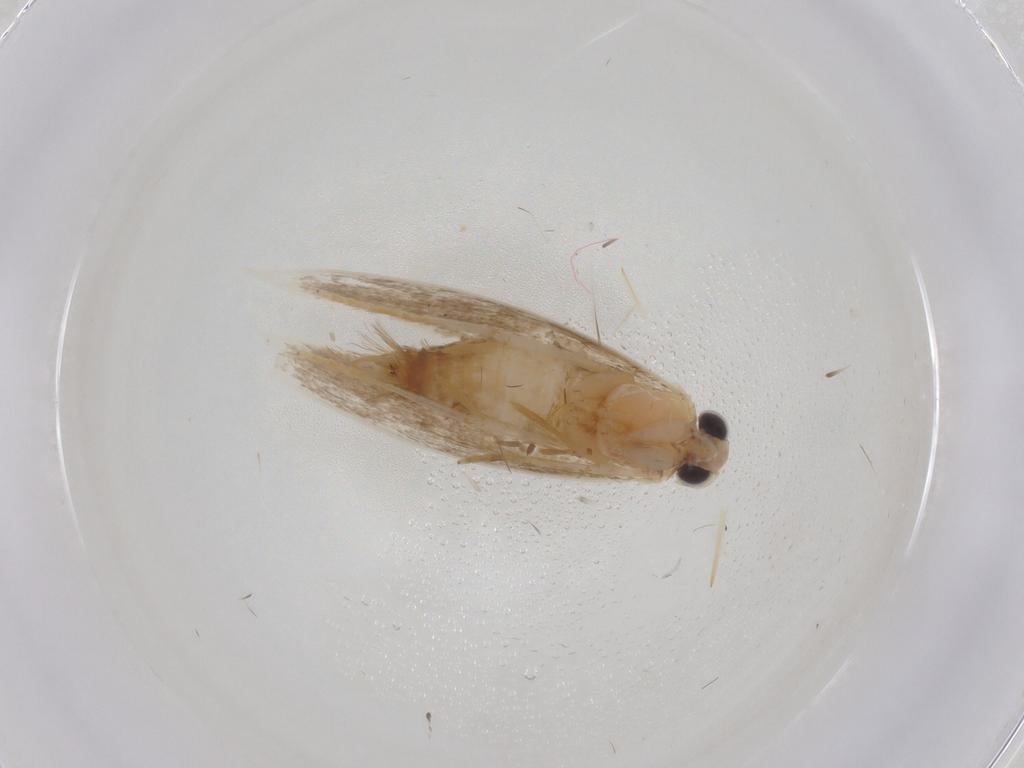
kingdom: Animalia
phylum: Arthropoda
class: Insecta
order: Lepidoptera
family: Tineidae
